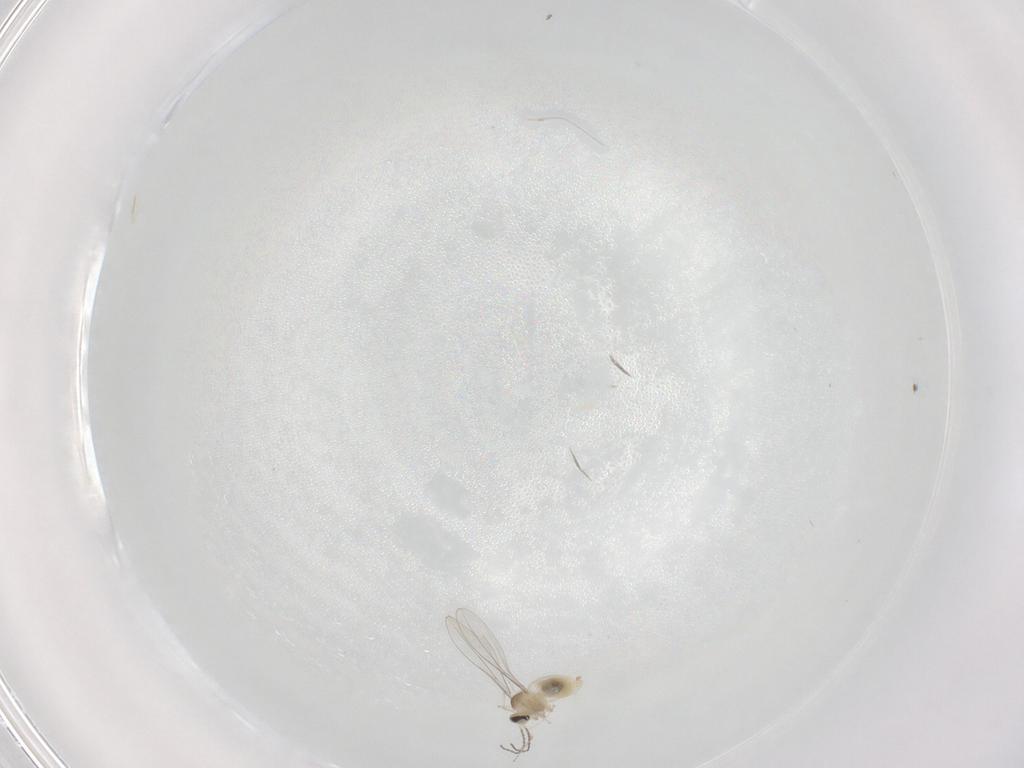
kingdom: Animalia
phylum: Arthropoda
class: Insecta
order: Diptera
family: Cecidomyiidae
